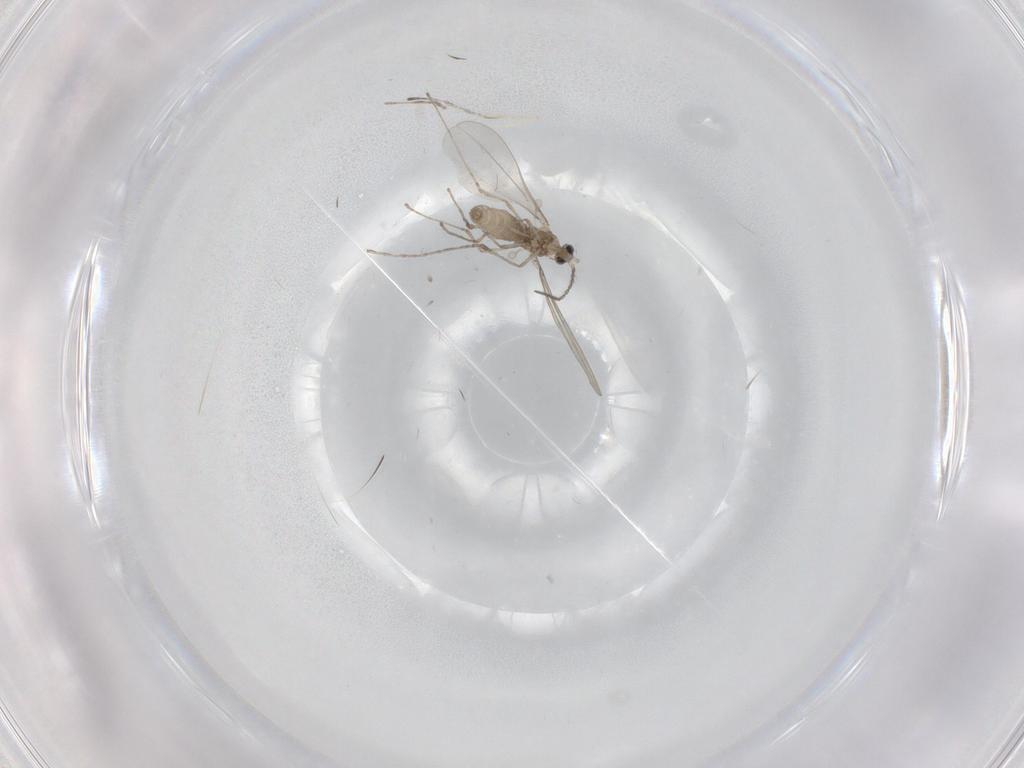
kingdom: Animalia
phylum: Arthropoda
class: Insecta
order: Diptera
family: Cecidomyiidae
